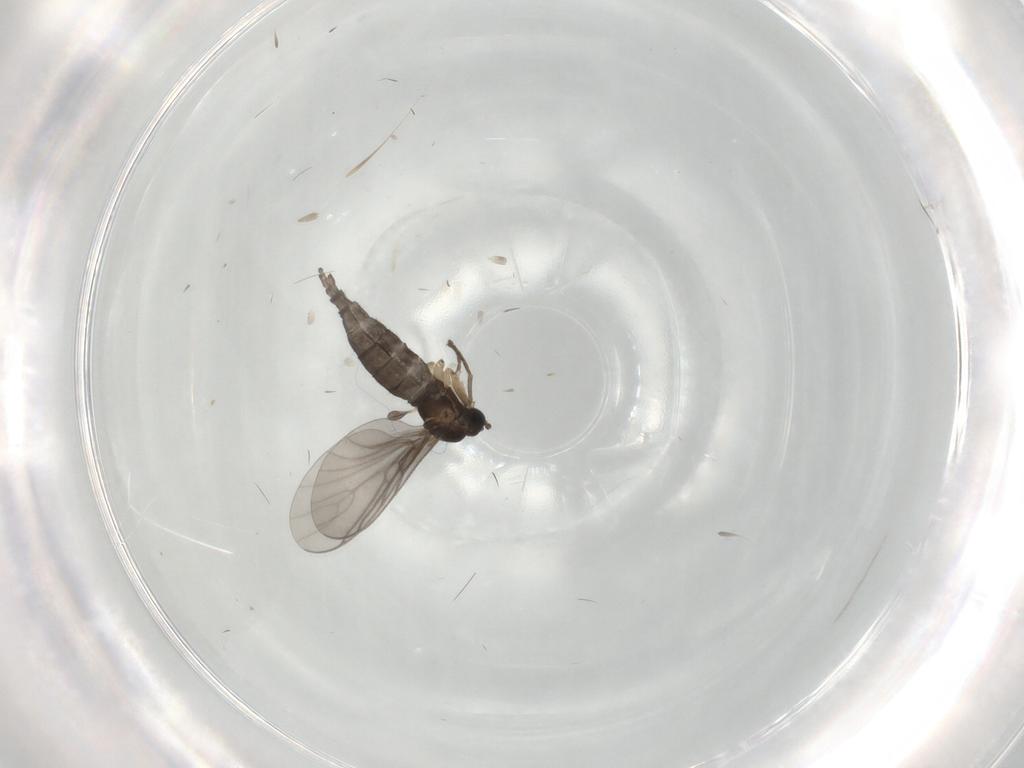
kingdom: Animalia
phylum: Arthropoda
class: Insecta
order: Diptera
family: Sciaridae
